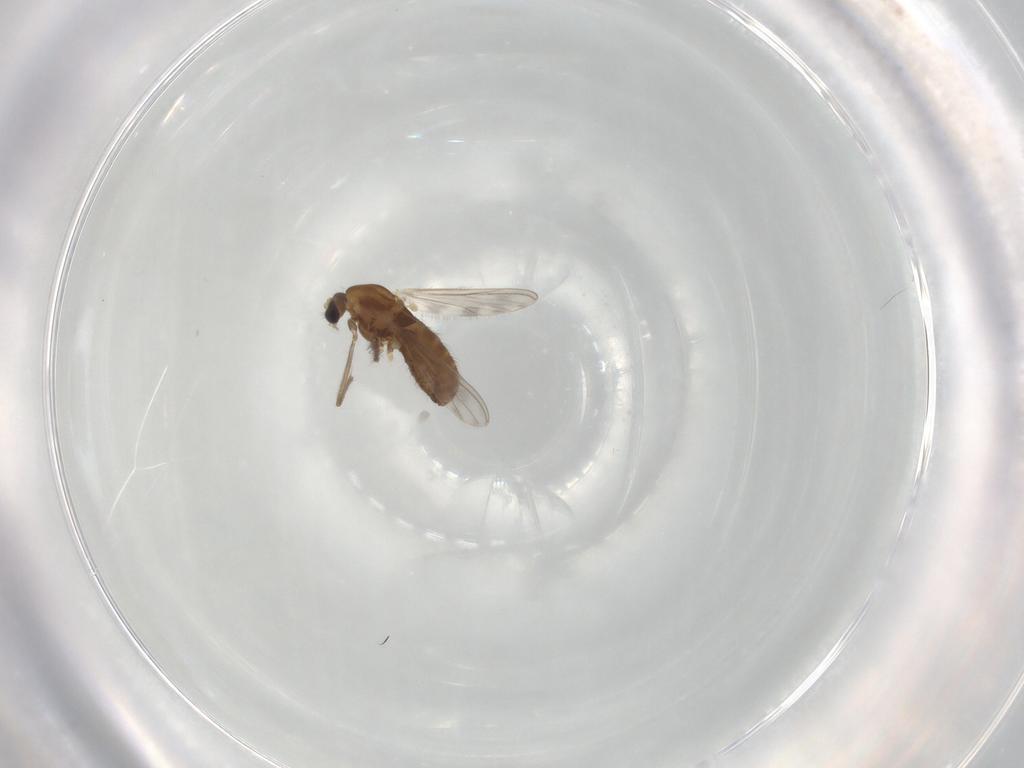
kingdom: Animalia
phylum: Arthropoda
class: Insecta
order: Diptera
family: Chironomidae
